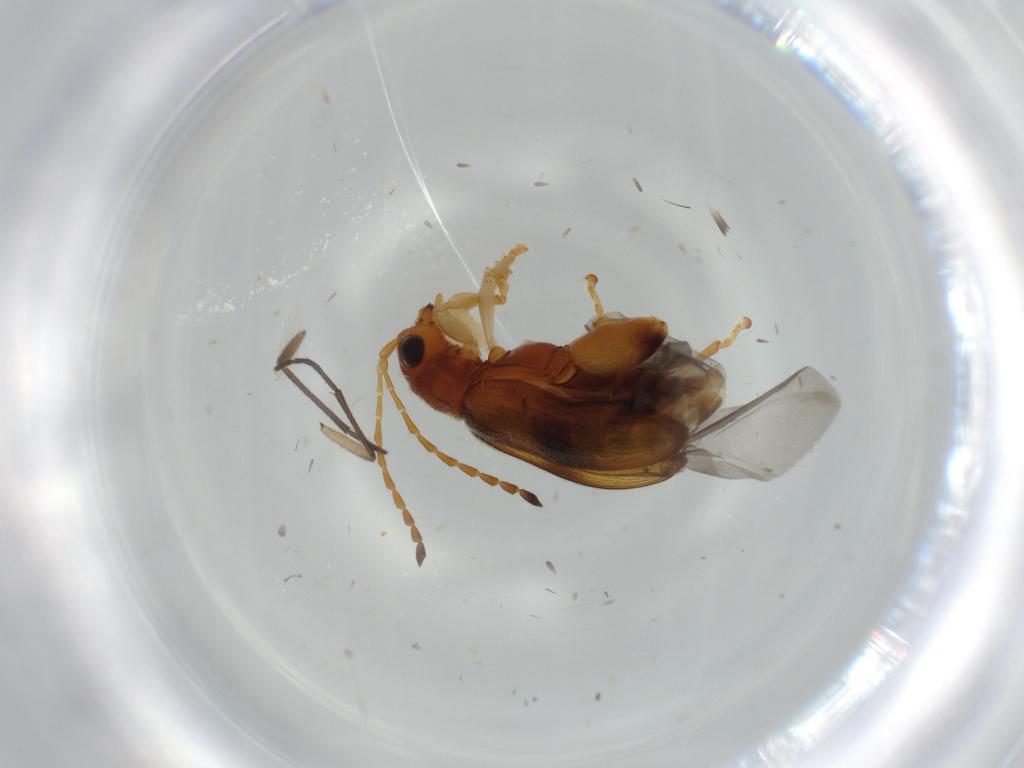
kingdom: Animalia
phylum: Arthropoda
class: Insecta
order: Coleoptera
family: Chrysomelidae
